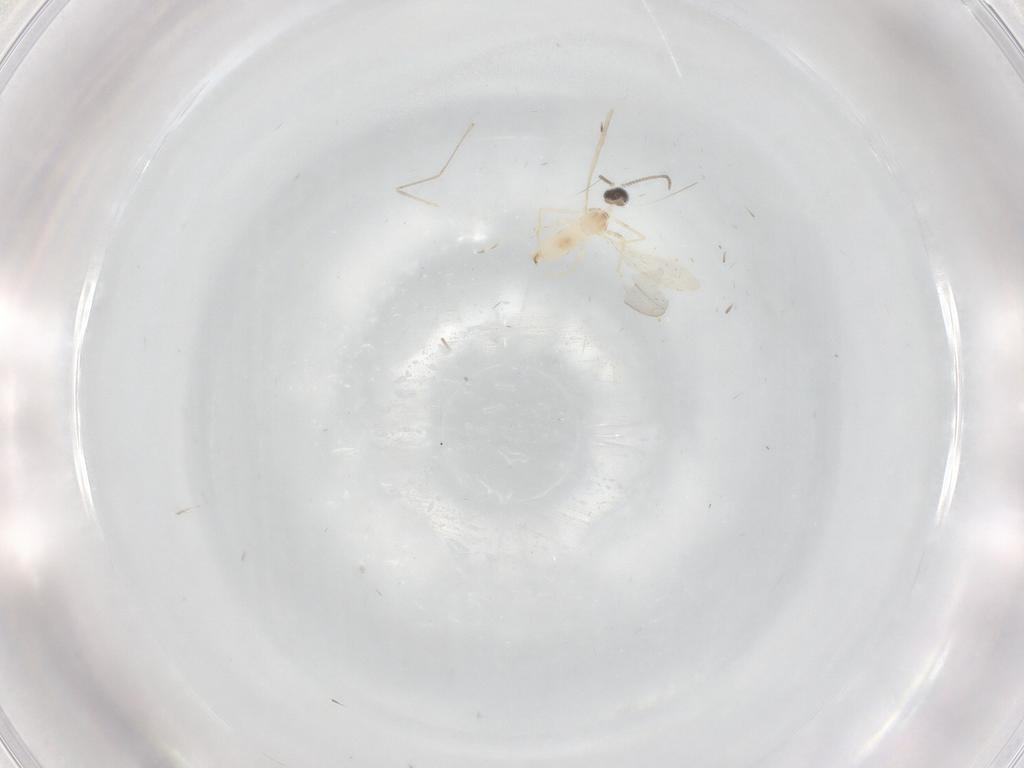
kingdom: Animalia
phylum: Arthropoda
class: Insecta
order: Diptera
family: Cecidomyiidae
